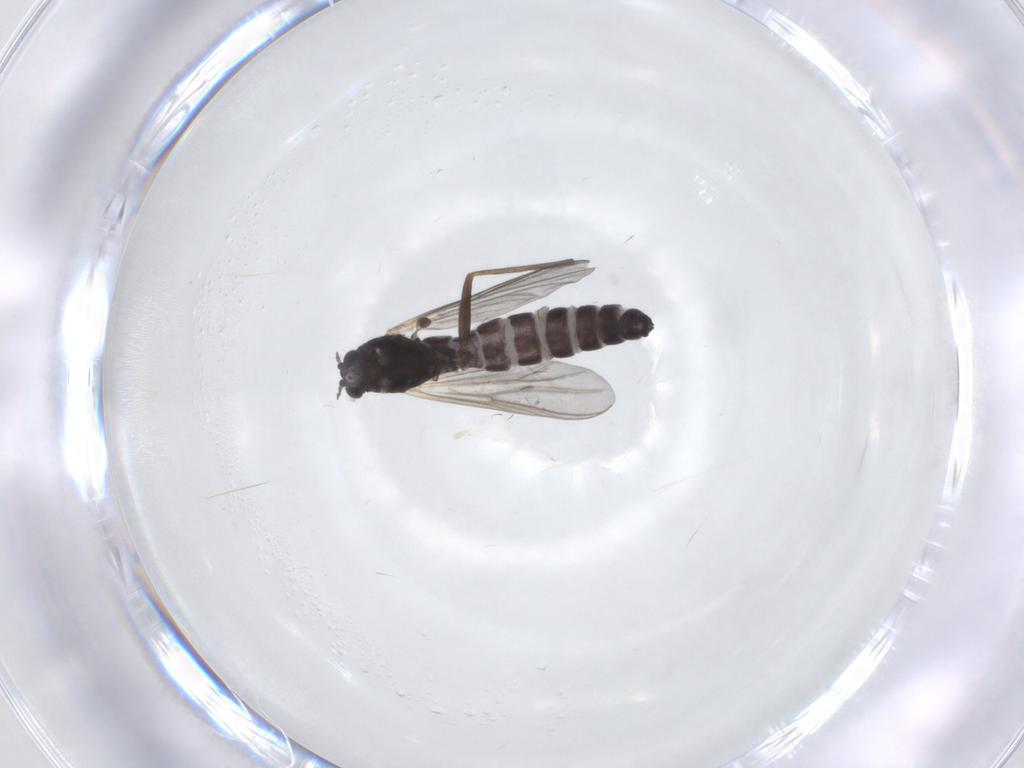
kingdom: Animalia
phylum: Arthropoda
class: Insecta
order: Diptera
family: Chironomidae
